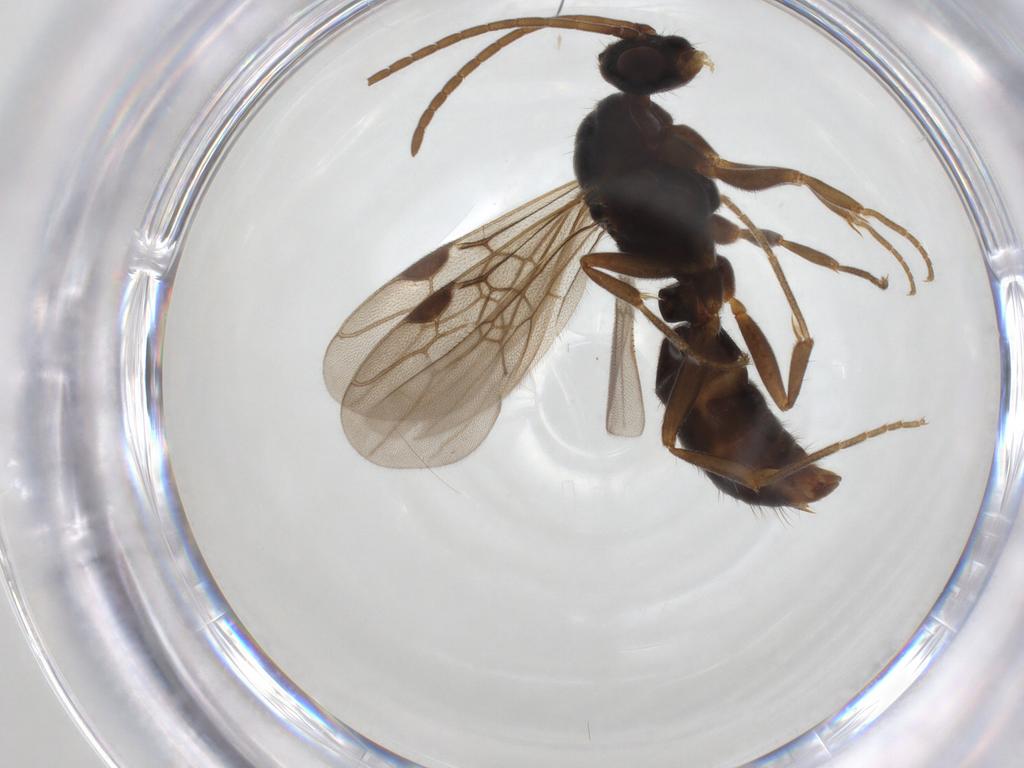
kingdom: Animalia
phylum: Arthropoda
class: Insecta
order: Hymenoptera
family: Formicidae
